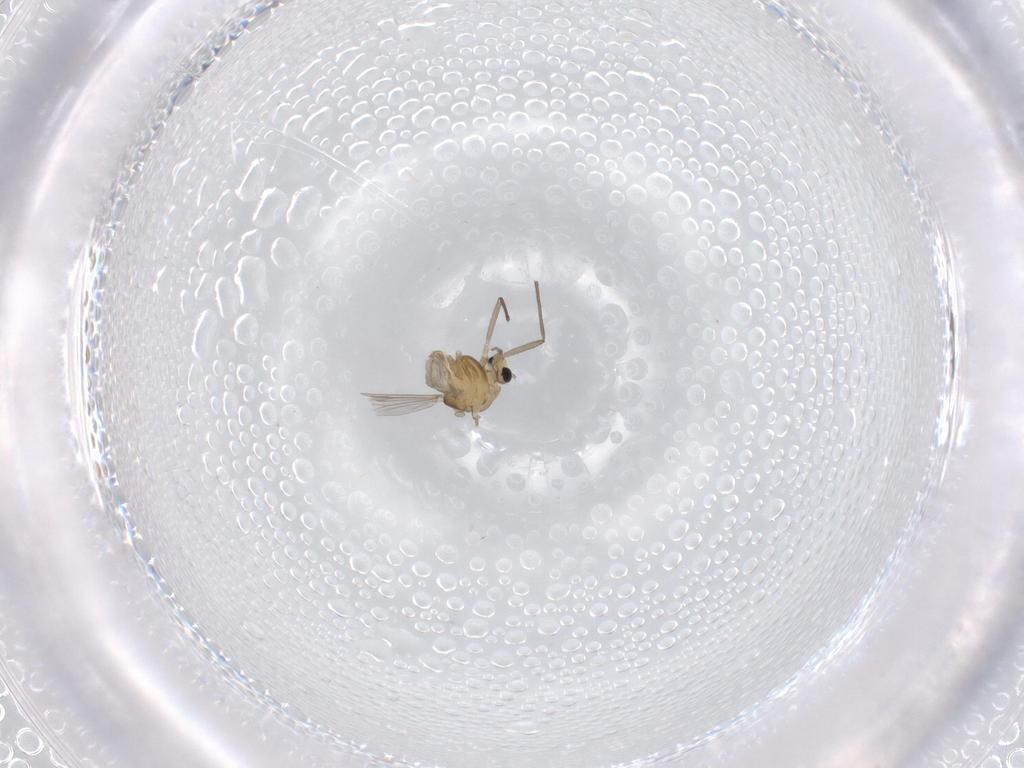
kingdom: Animalia
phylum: Arthropoda
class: Insecta
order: Diptera
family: Chironomidae
